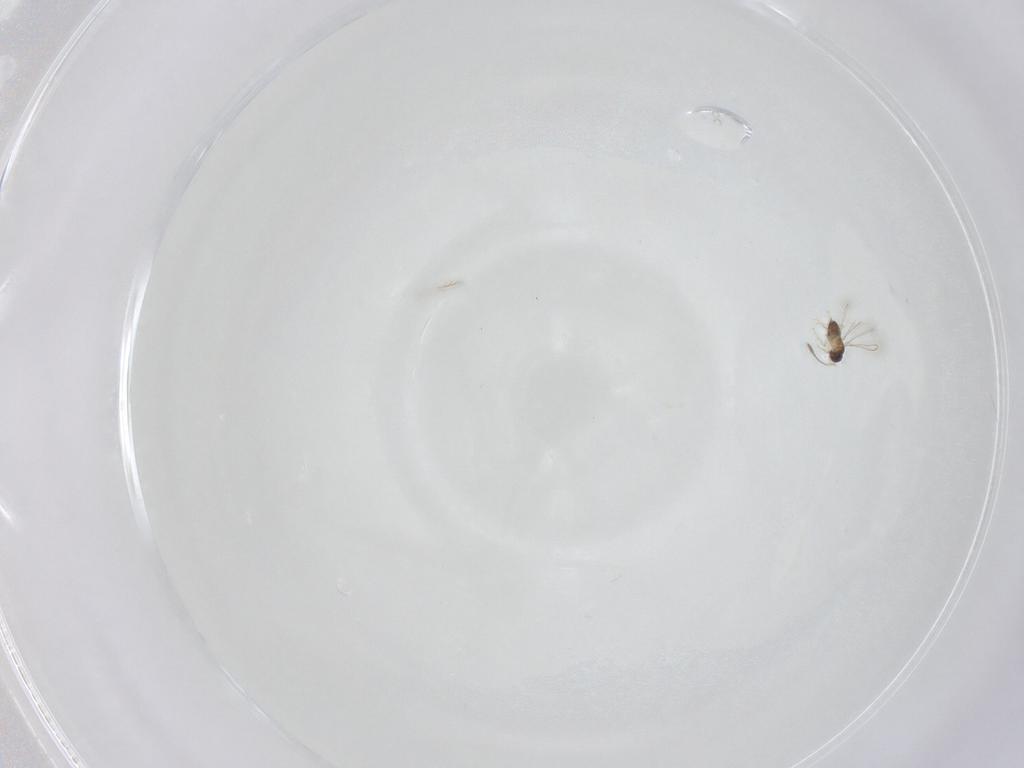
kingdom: Animalia
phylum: Arthropoda
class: Insecta
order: Hymenoptera
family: Mymaridae
